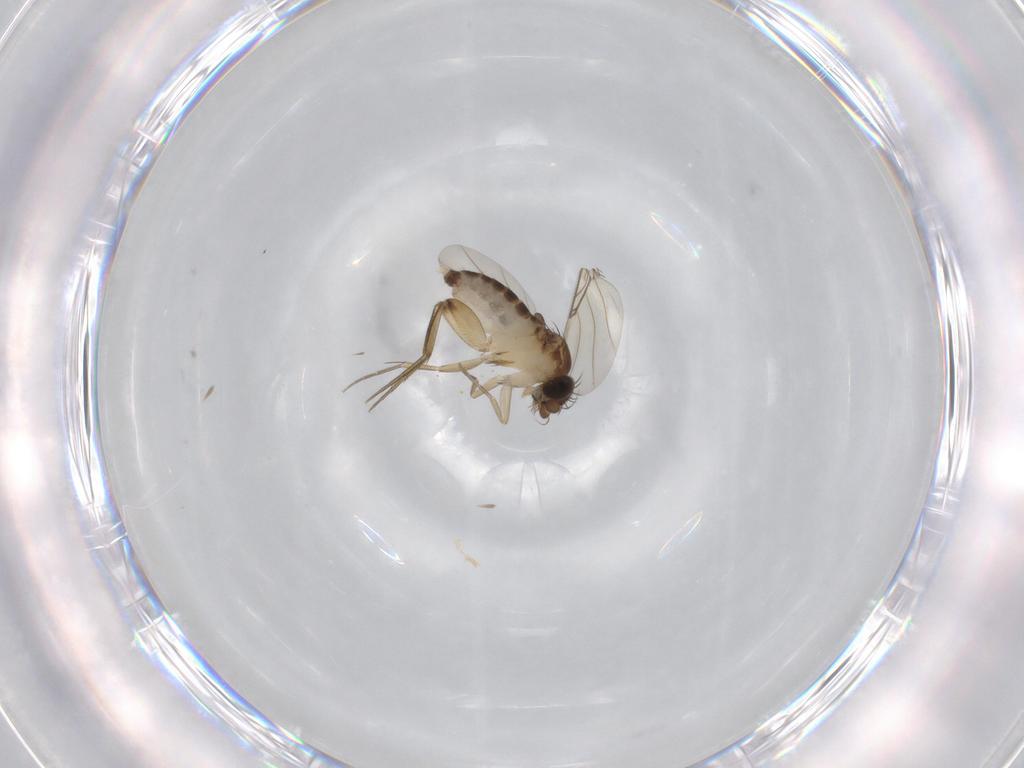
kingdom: Animalia
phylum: Arthropoda
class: Insecta
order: Diptera
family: Phoridae
